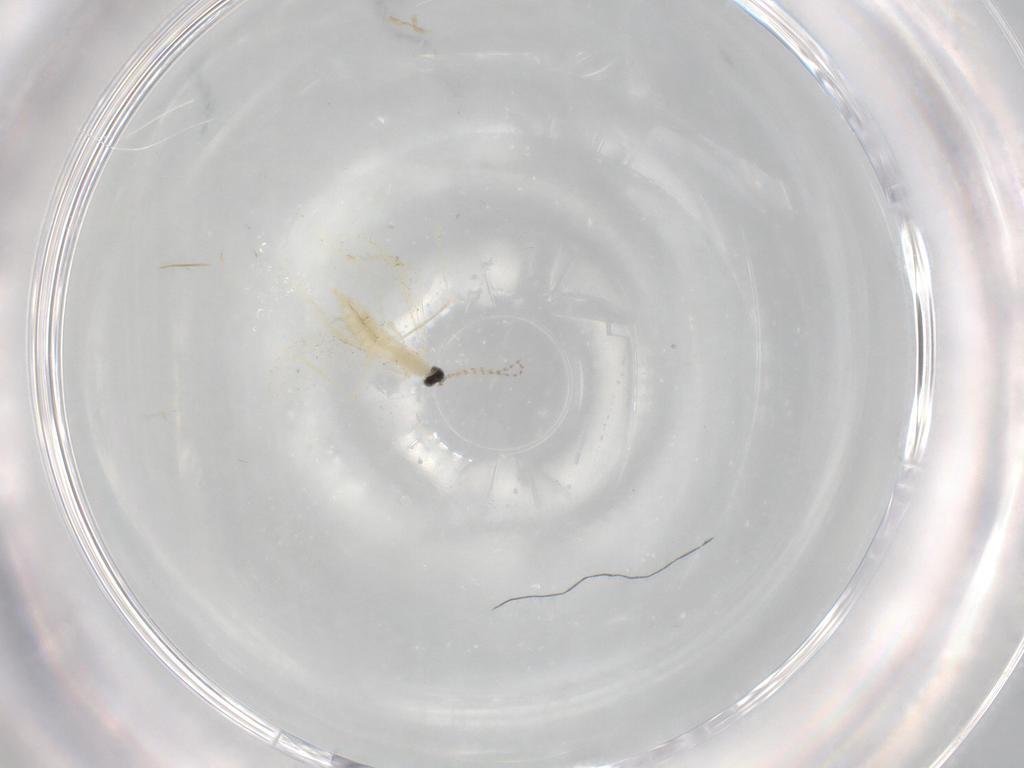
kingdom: Animalia
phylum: Arthropoda
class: Insecta
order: Diptera
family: Cecidomyiidae
